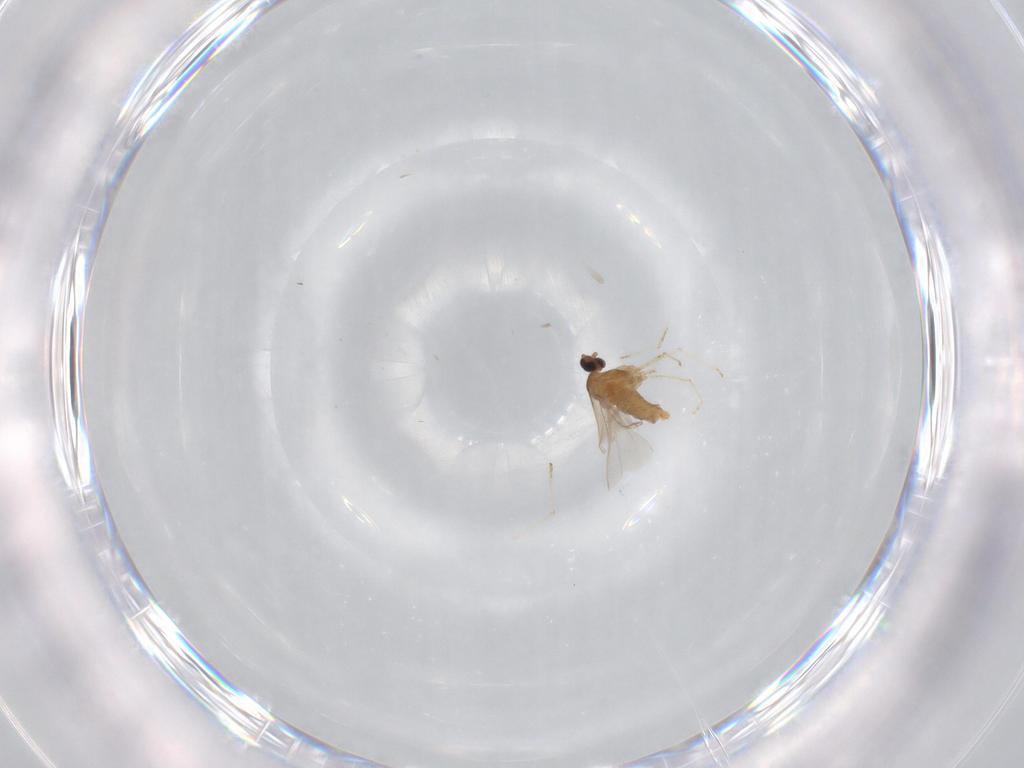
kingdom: Animalia
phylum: Arthropoda
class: Insecta
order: Diptera
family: Cecidomyiidae
